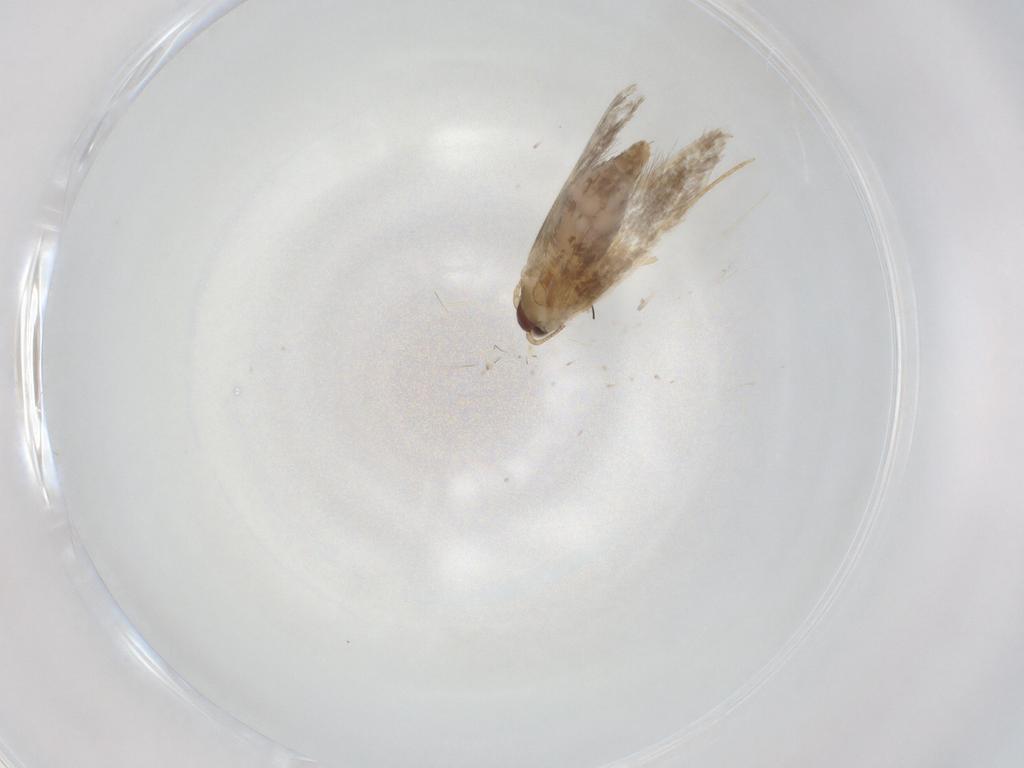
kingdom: Animalia
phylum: Arthropoda
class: Insecta
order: Lepidoptera
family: Tineidae
